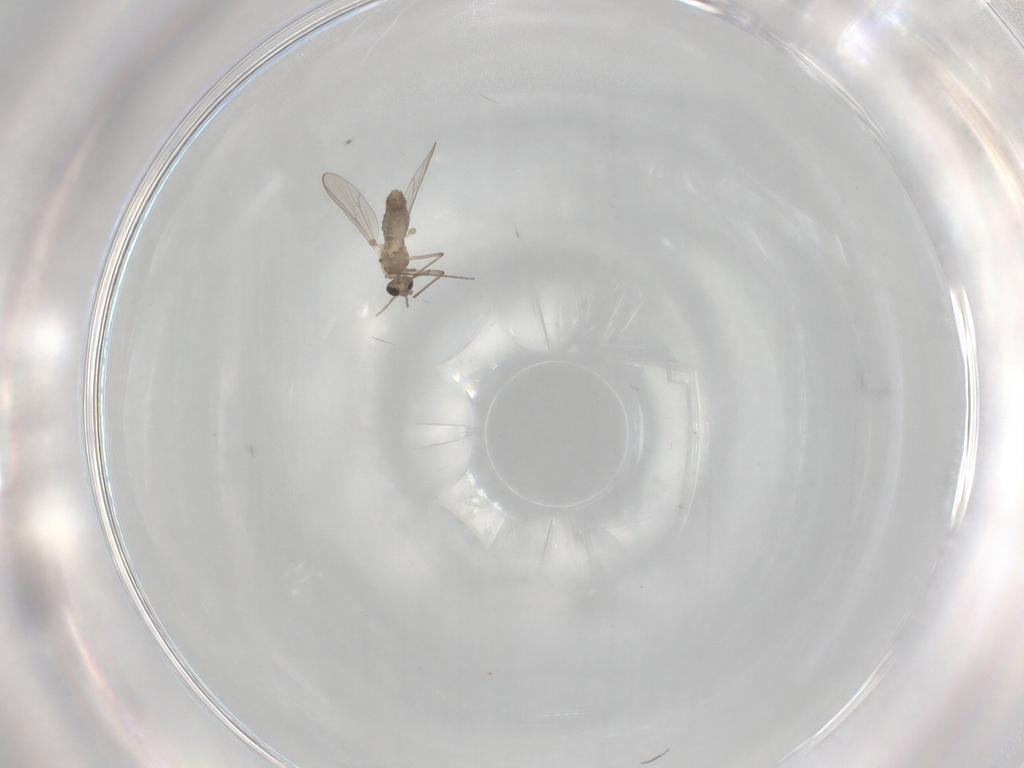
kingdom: Animalia
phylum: Arthropoda
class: Insecta
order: Diptera
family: Chironomidae
